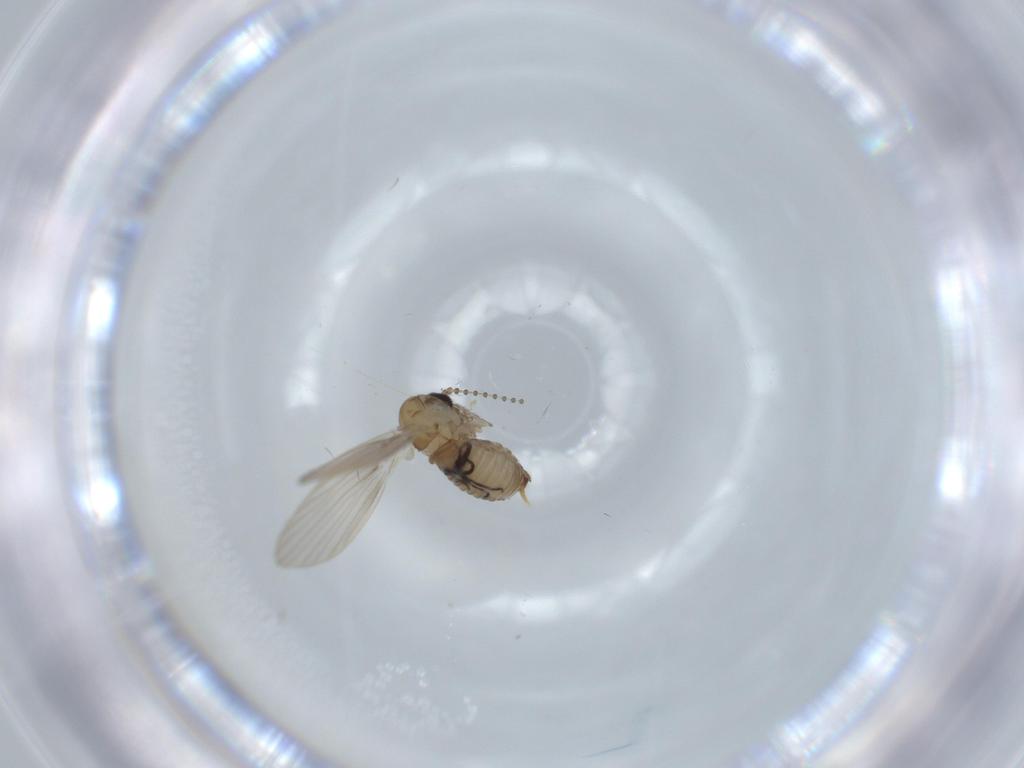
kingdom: Animalia
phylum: Arthropoda
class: Insecta
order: Diptera
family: Psychodidae
